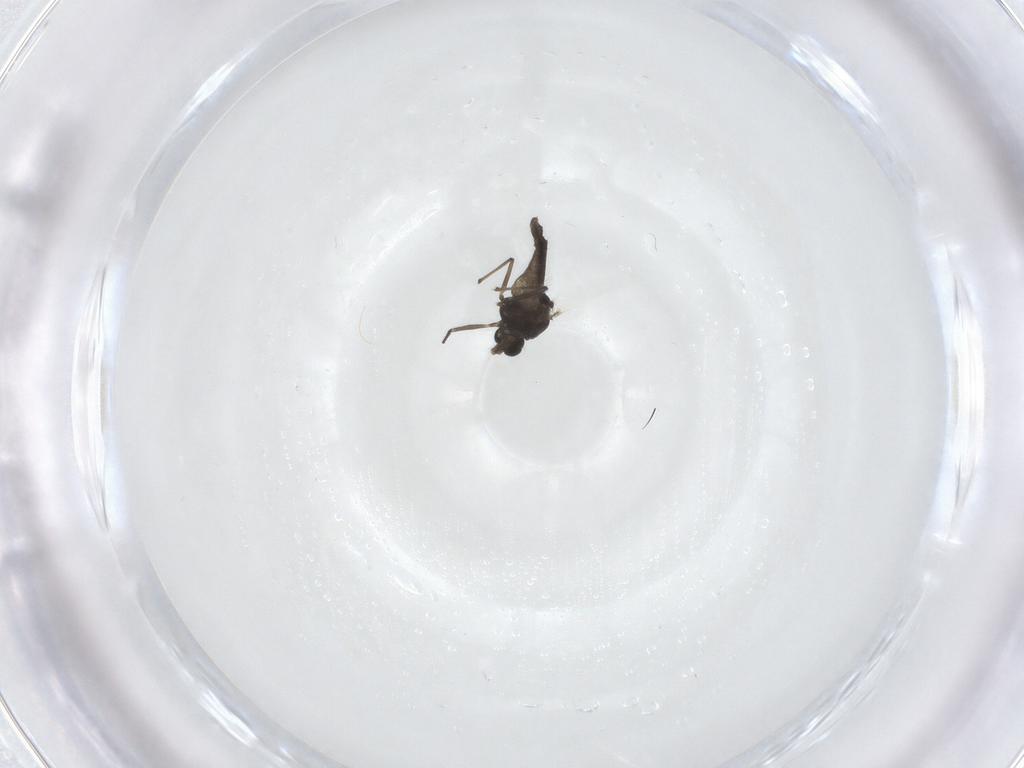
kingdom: Animalia
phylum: Arthropoda
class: Insecta
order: Diptera
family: Chironomidae
